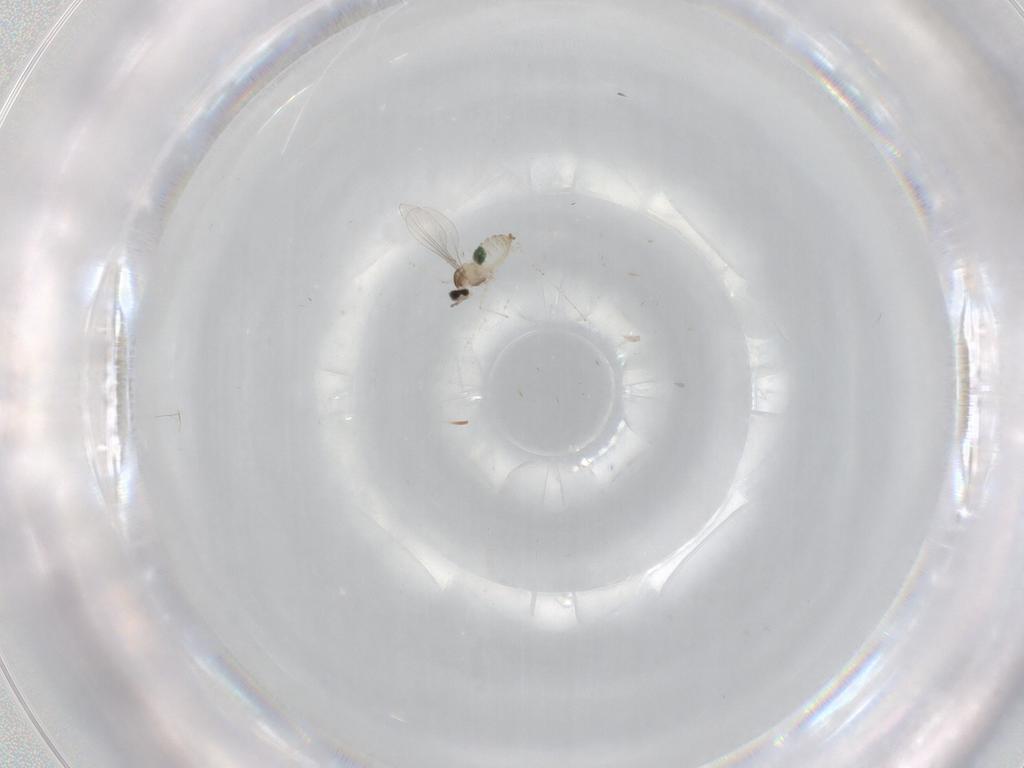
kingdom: Animalia
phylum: Arthropoda
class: Insecta
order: Diptera
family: Cecidomyiidae
